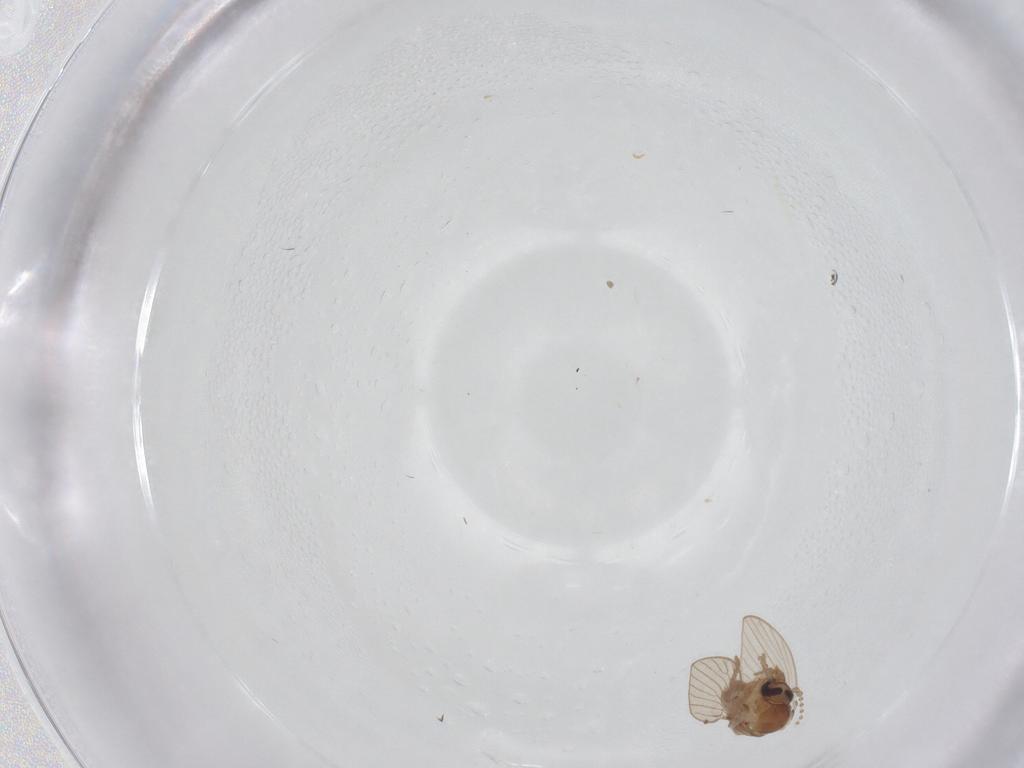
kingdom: Animalia
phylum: Arthropoda
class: Insecta
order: Diptera
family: Psychodidae
